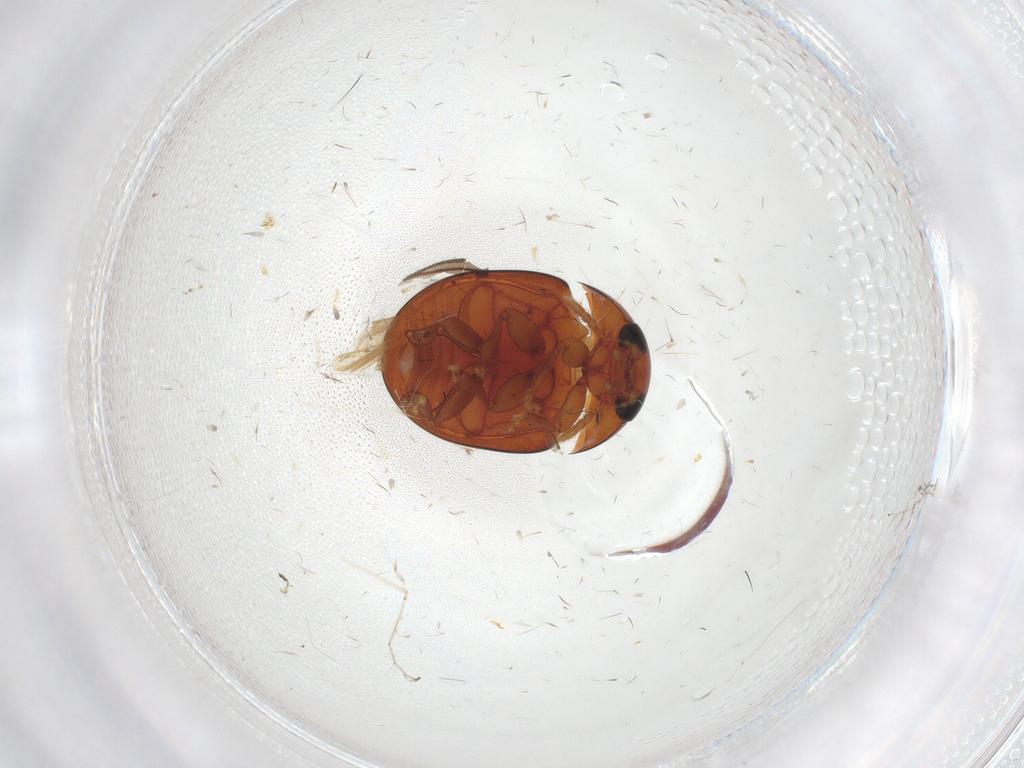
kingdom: Animalia
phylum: Arthropoda
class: Insecta
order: Coleoptera
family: Phalacridae
